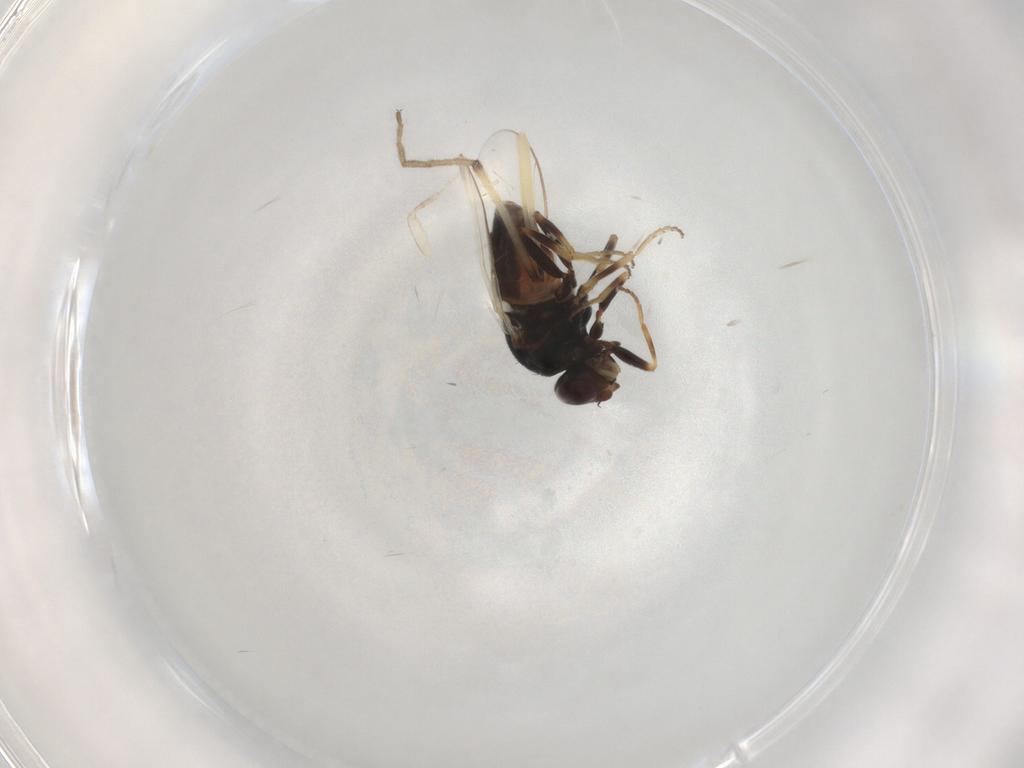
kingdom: Animalia
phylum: Arthropoda
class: Insecta
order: Diptera
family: Chloropidae
